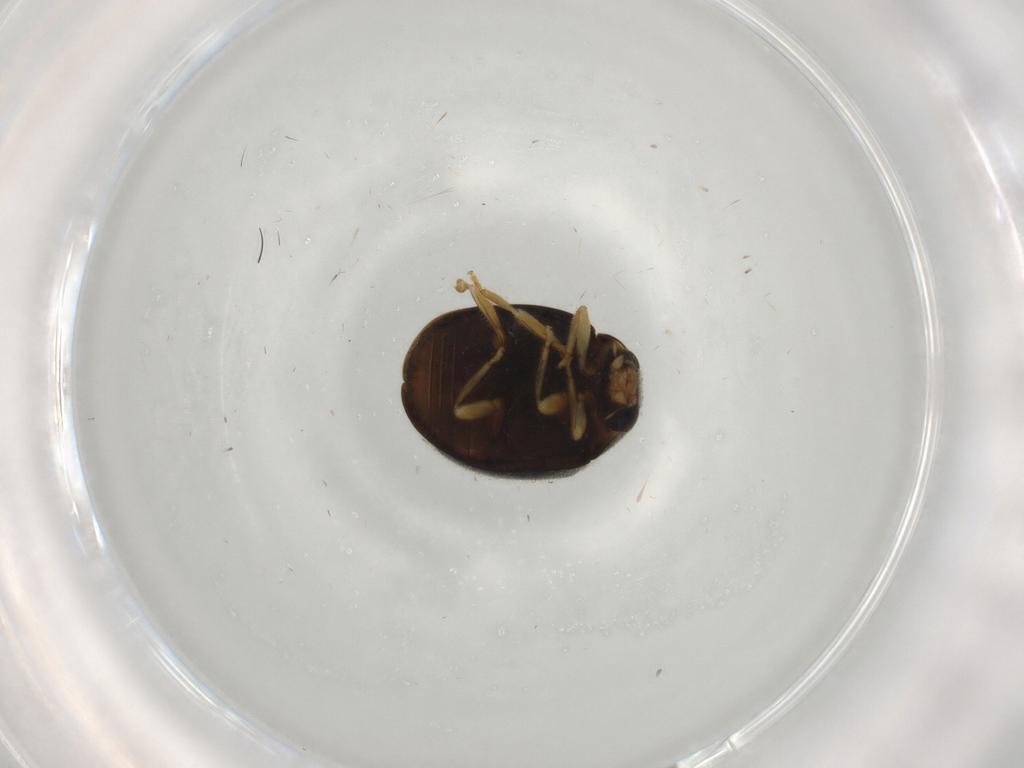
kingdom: Animalia
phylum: Arthropoda
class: Insecta
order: Coleoptera
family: Coccinellidae
